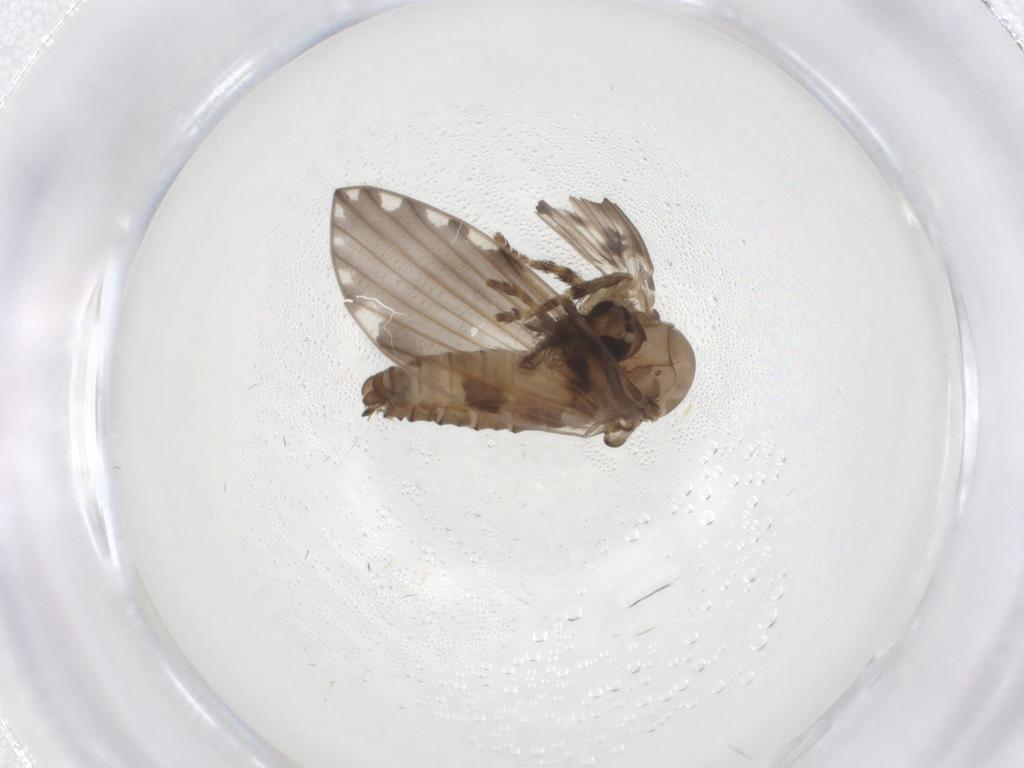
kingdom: Animalia
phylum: Arthropoda
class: Insecta
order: Diptera
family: Psychodidae
